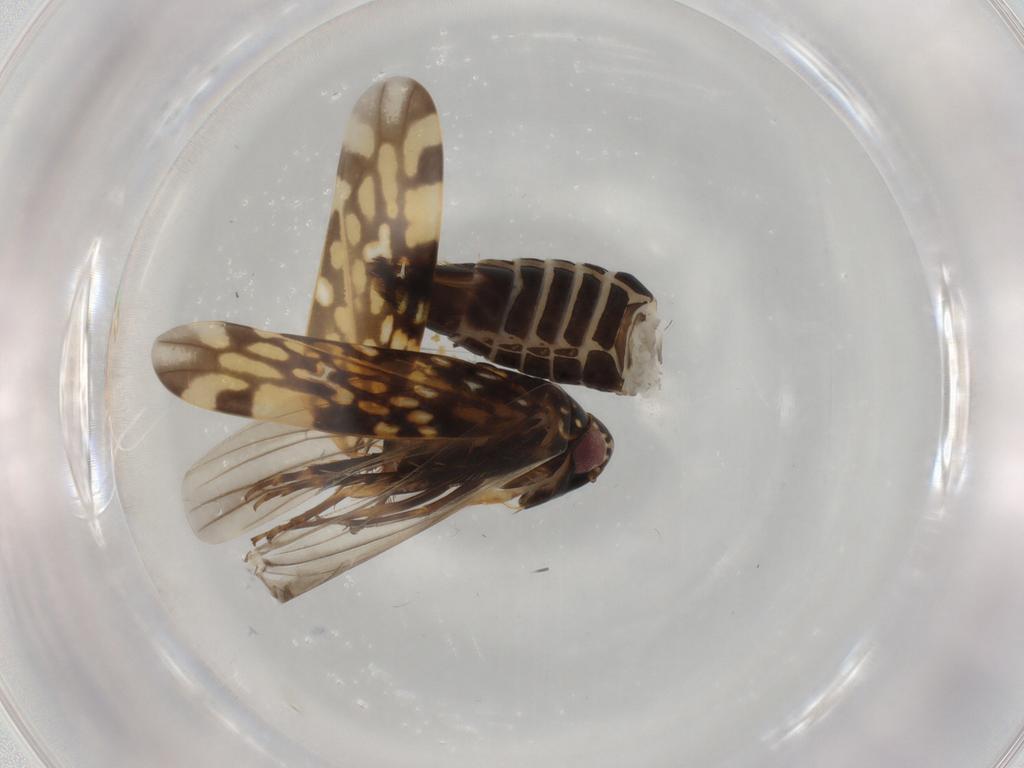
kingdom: Animalia
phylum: Arthropoda
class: Insecta
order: Hemiptera
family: Cicadellidae
